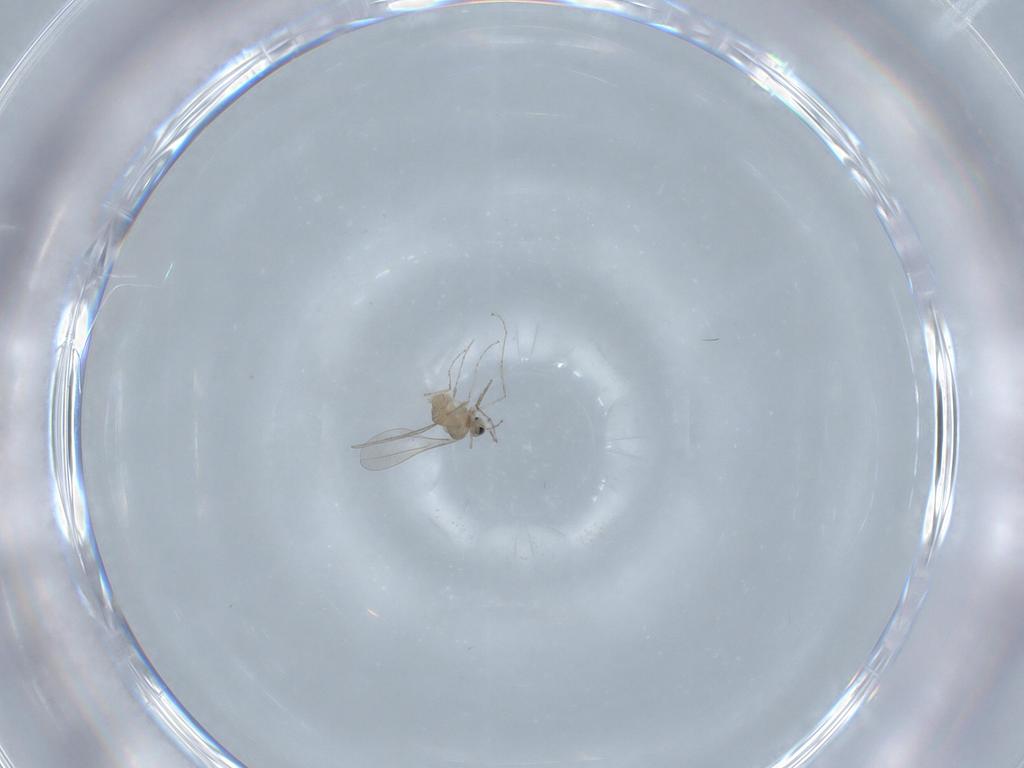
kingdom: Animalia
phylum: Arthropoda
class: Insecta
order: Diptera
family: Cecidomyiidae
